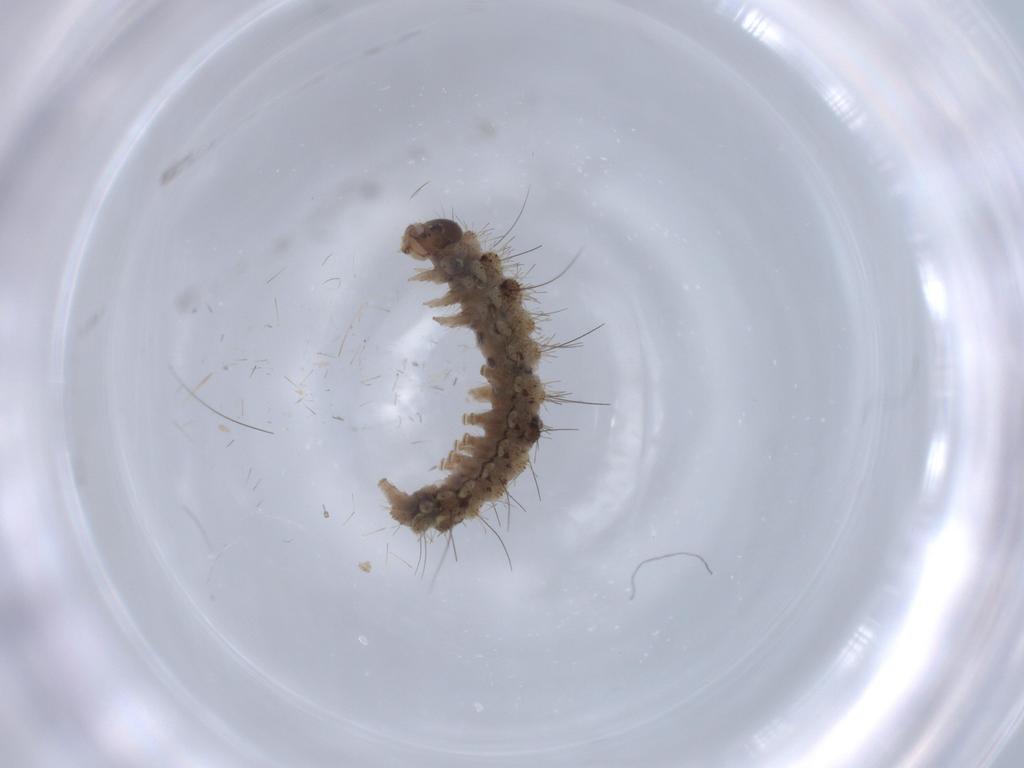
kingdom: Animalia
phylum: Arthropoda
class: Insecta
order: Lepidoptera
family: Erebidae
